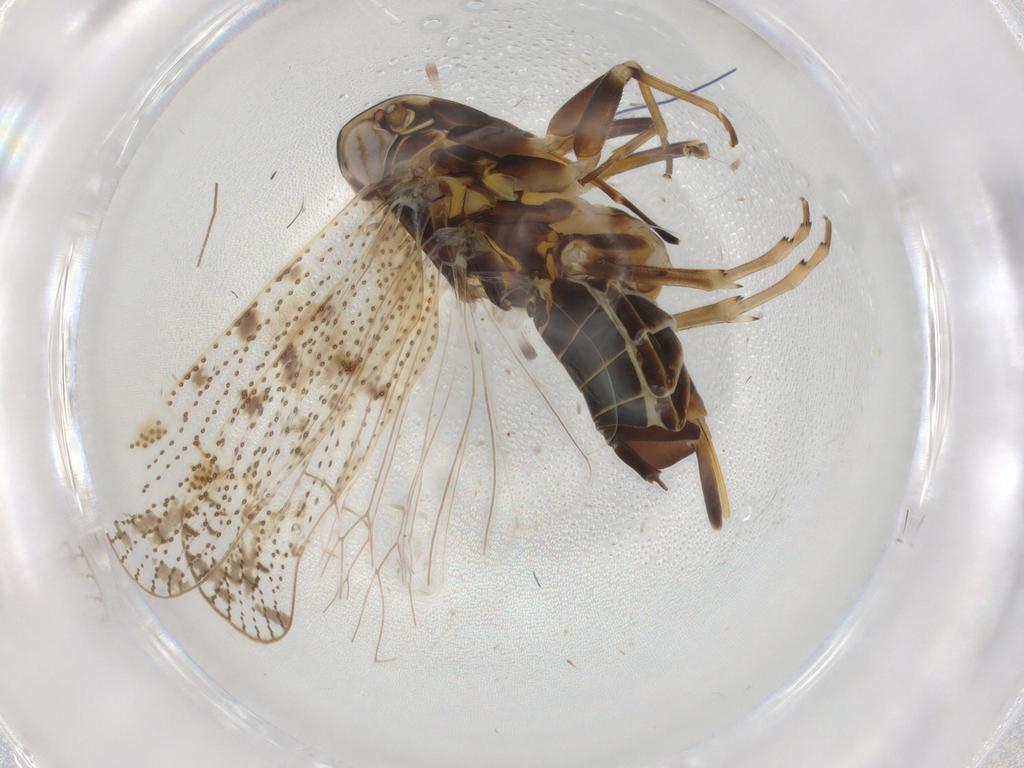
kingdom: Animalia
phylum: Arthropoda
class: Insecta
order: Hemiptera
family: Cixiidae
